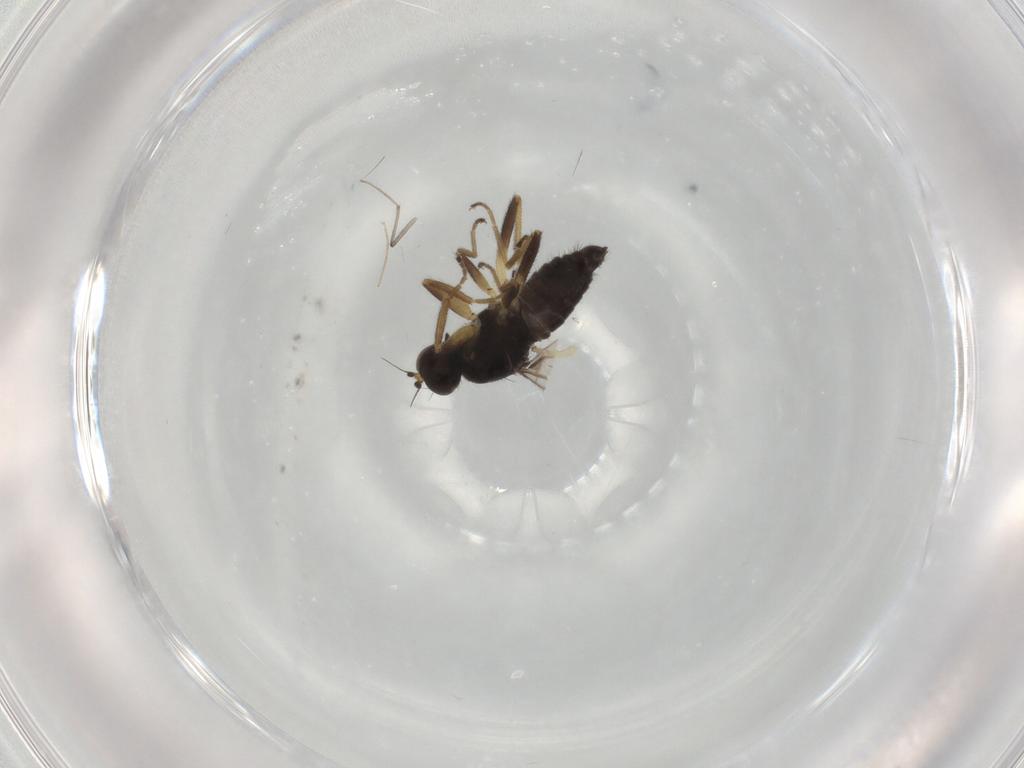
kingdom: Animalia
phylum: Arthropoda
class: Insecta
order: Diptera
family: Hybotidae
